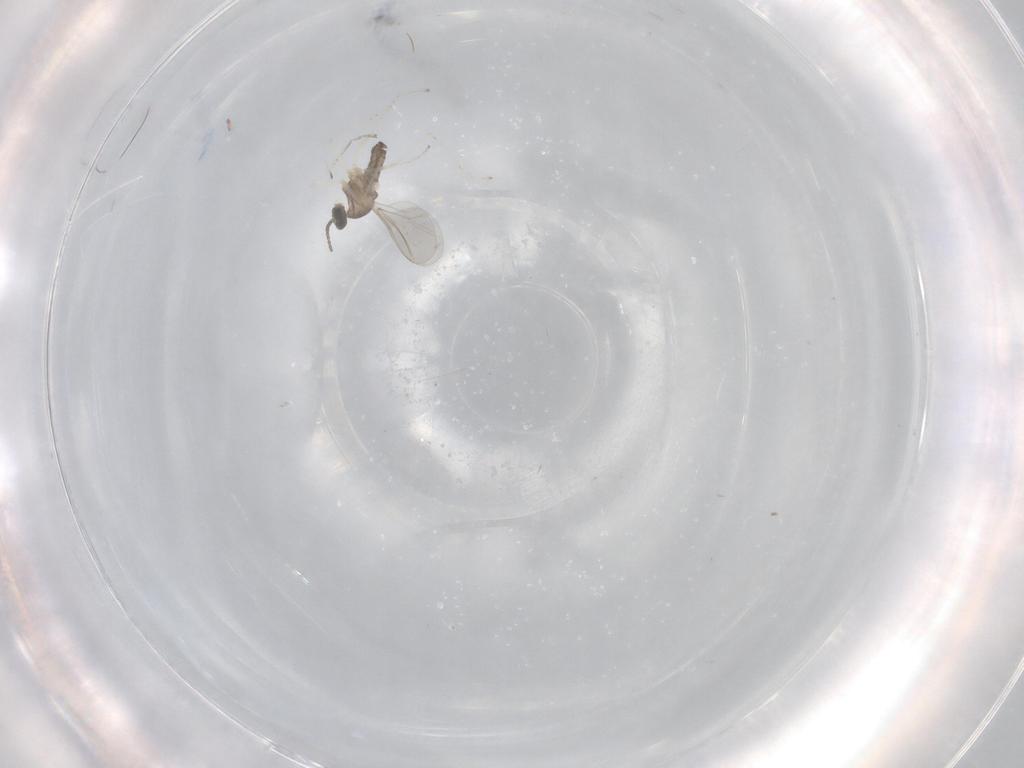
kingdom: Animalia
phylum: Arthropoda
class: Insecta
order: Diptera
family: Cecidomyiidae
